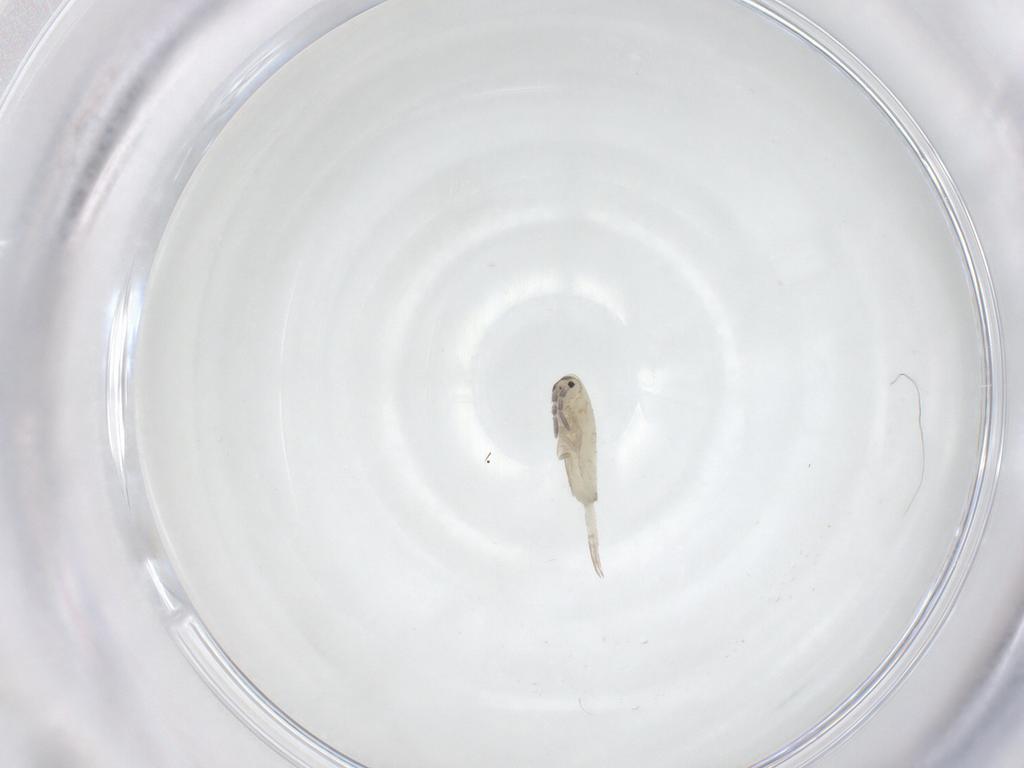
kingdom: Animalia
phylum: Arthropoda
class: Collembola
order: Entomobryomorpha
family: Entomobryidae
